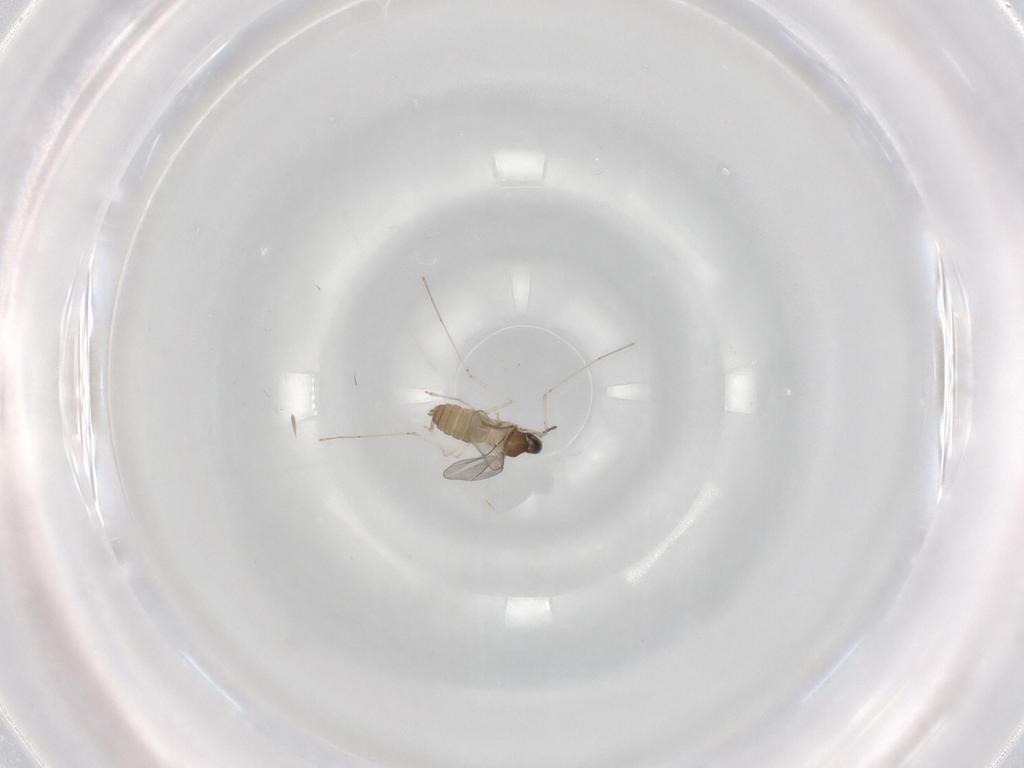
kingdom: Animalia
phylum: Arthropoda
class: Insecta
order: Diptera
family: Cecidomyiidae
